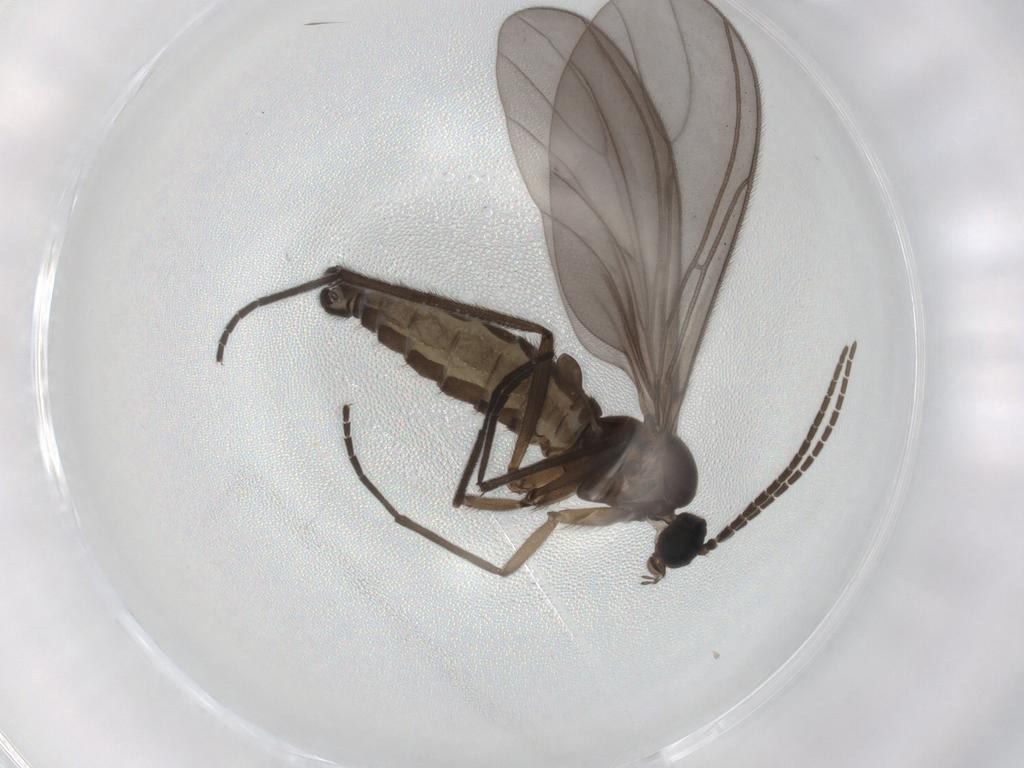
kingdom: Animalia
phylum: Arthropoda
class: Insecta
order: Diptera
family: Sciaridae
